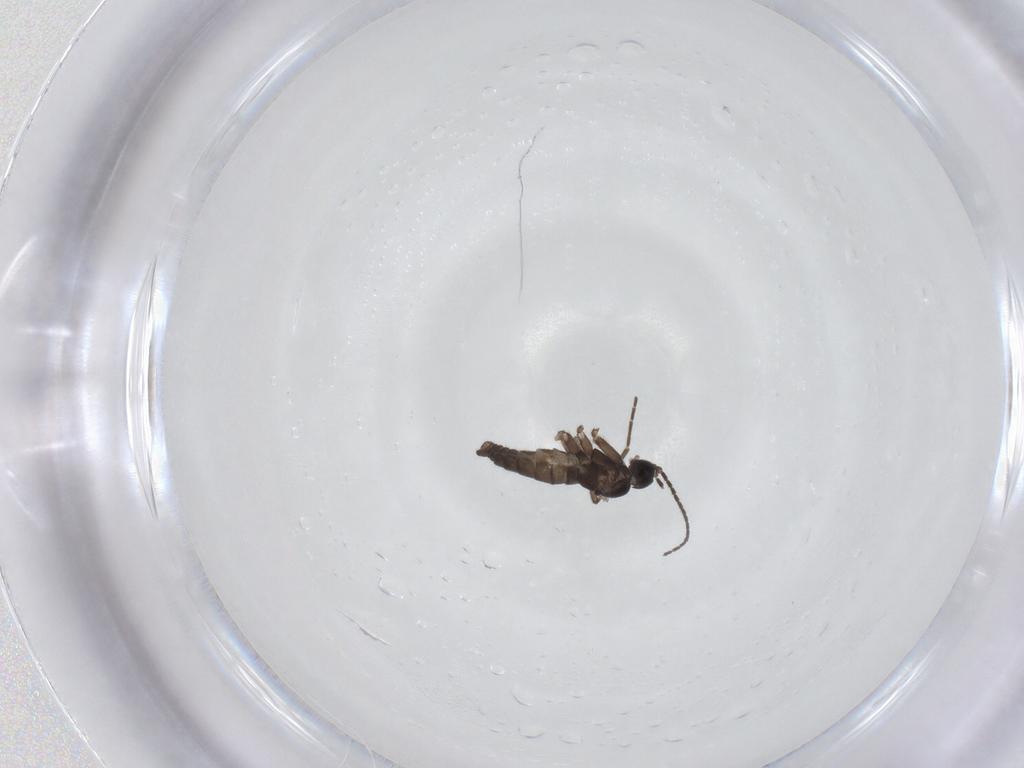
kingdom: Animalia
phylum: Arthropoda
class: Insecta
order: Diptera
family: Sciaridae
